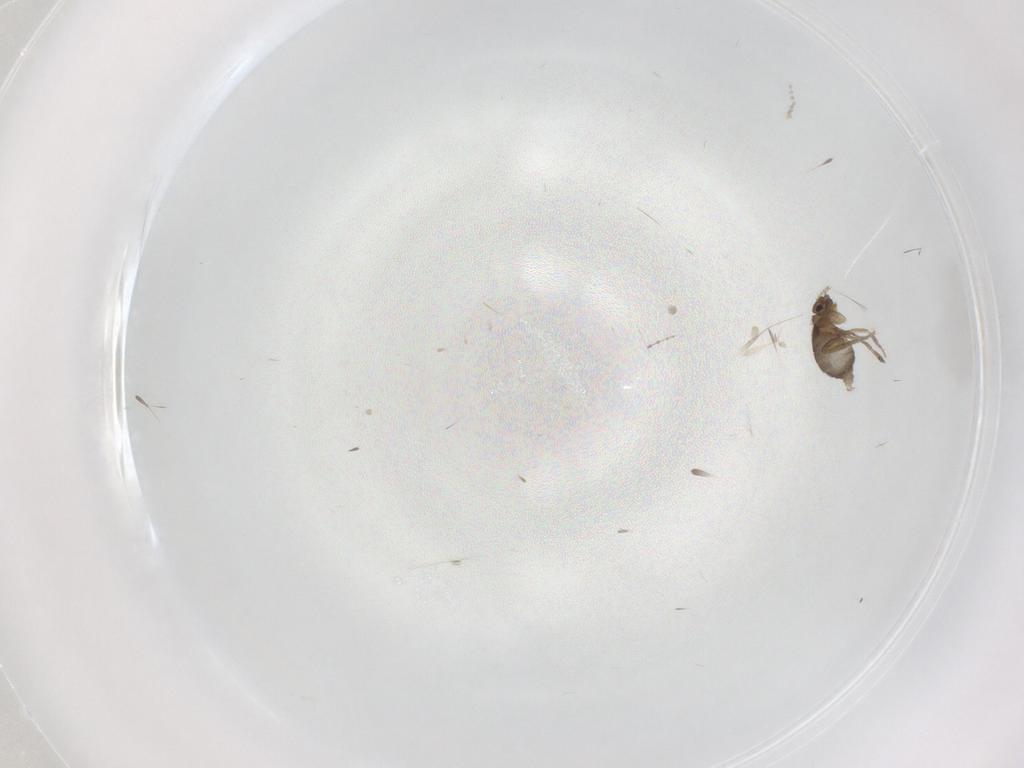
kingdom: Animalia
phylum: Arthropoda
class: Insecta
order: Diptera
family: Phoridae
